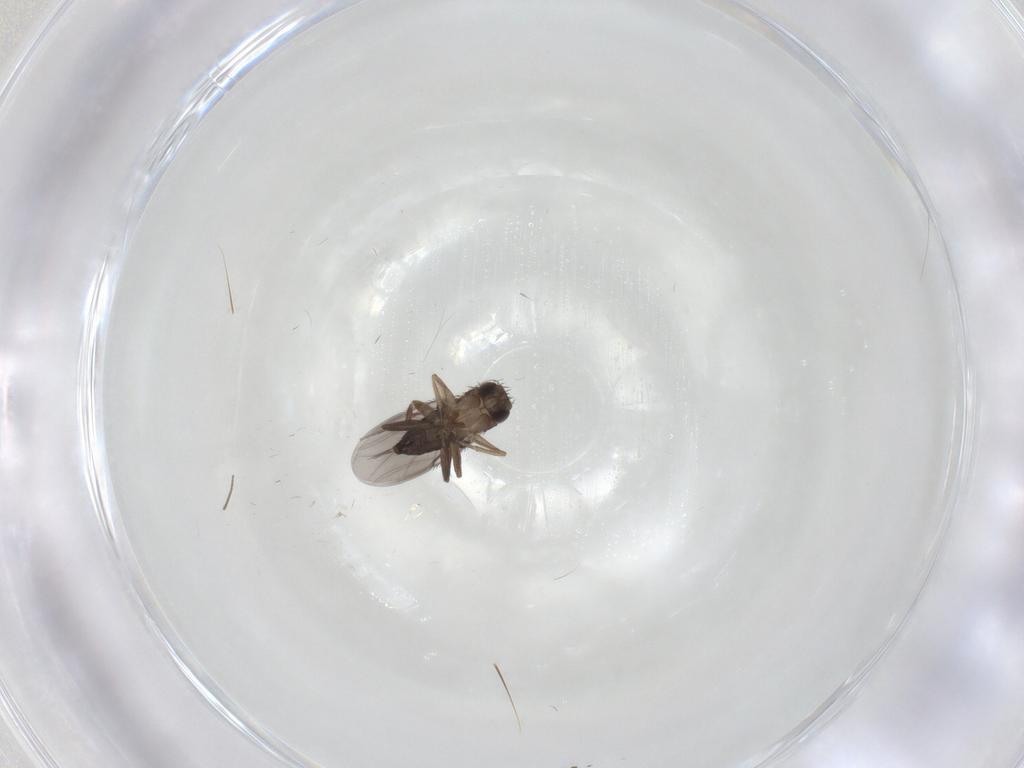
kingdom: Animalia
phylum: Arthropoda
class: Insecta
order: Diptera
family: Phoridae
